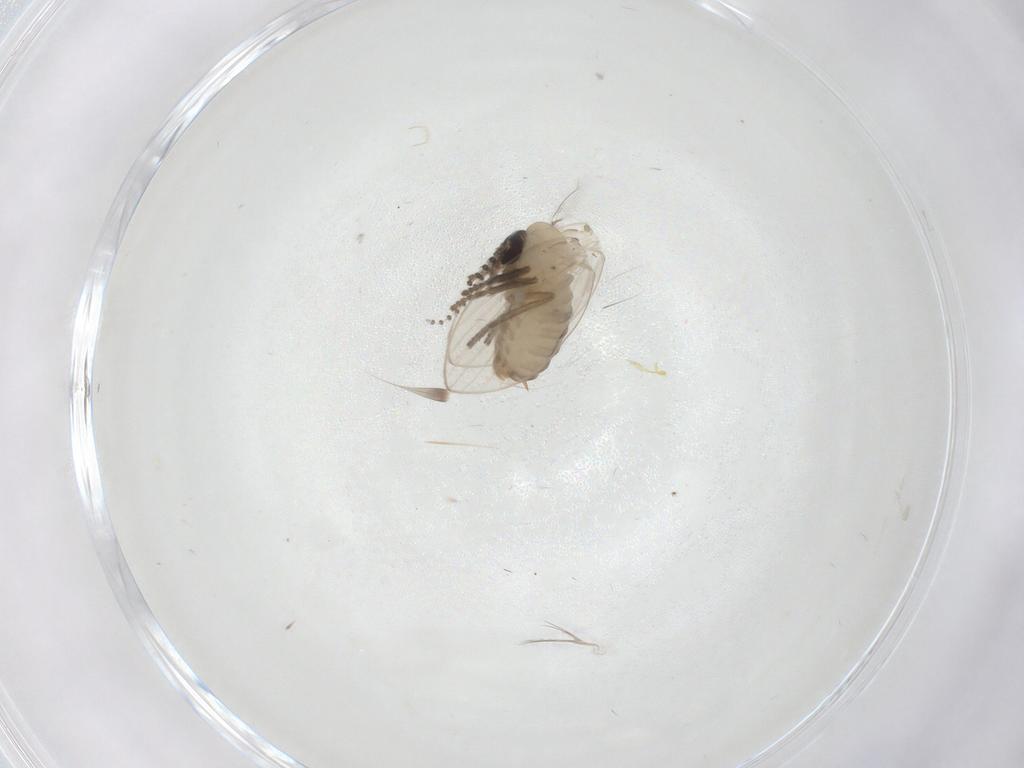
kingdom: Animalia
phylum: Arthropoda
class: Insecta
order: Diptera
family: Psychodidae
